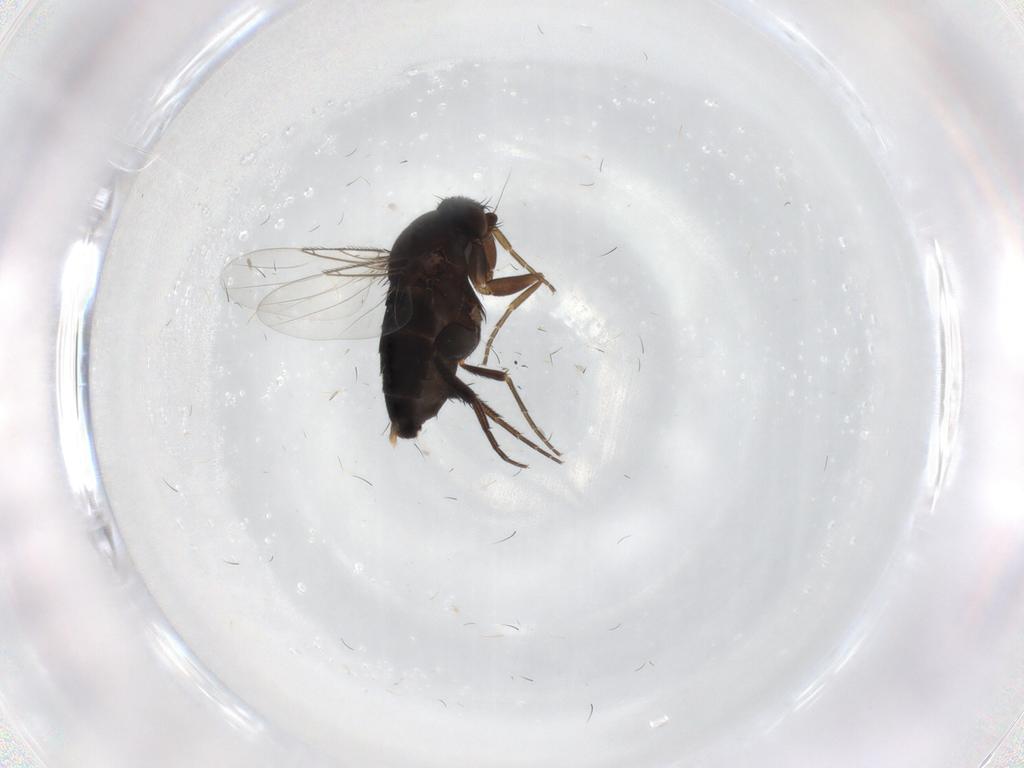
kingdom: Animalia
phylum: Arthropoda
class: Insecta
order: Diptera
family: Phoridae
